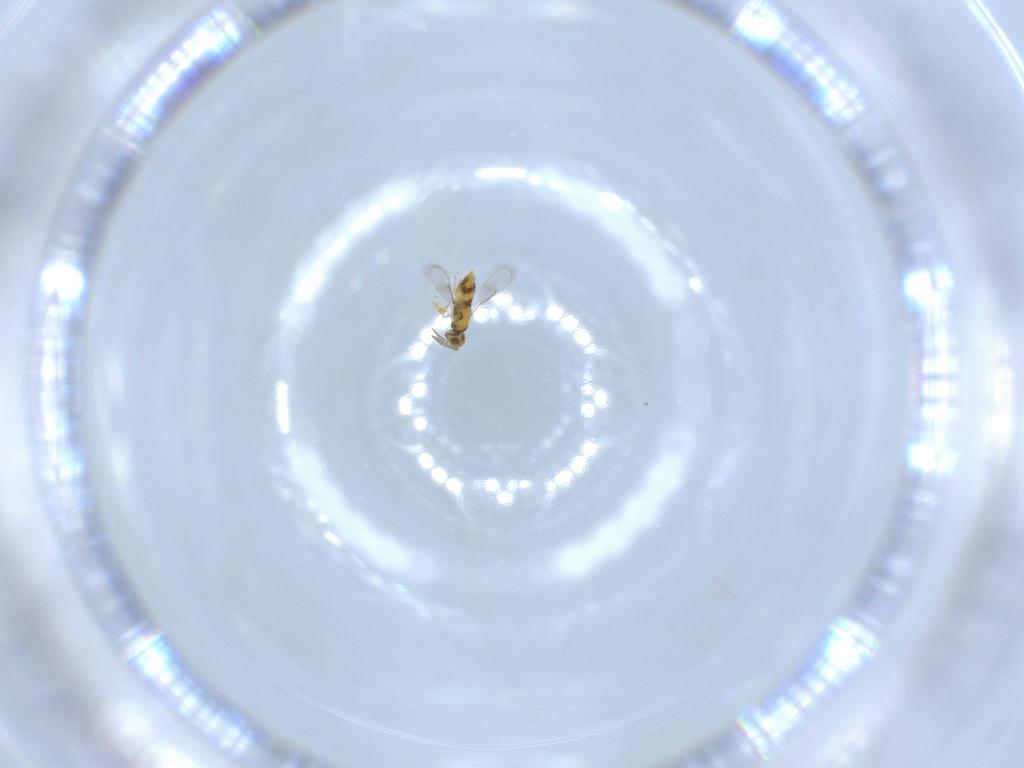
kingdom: Animalia
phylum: Arthropoda
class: Insecta
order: Hymenoptera
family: Aphelinidae
